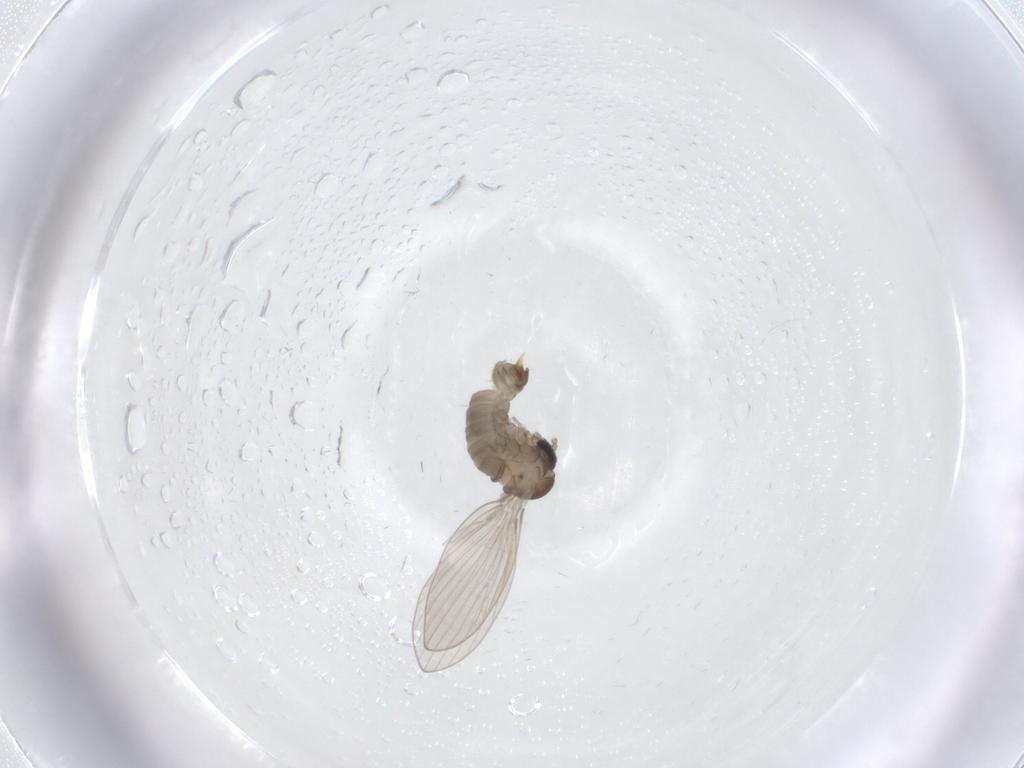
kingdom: Animalia
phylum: Arthropoda
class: Insecta
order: Diptera
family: Psychodidae
